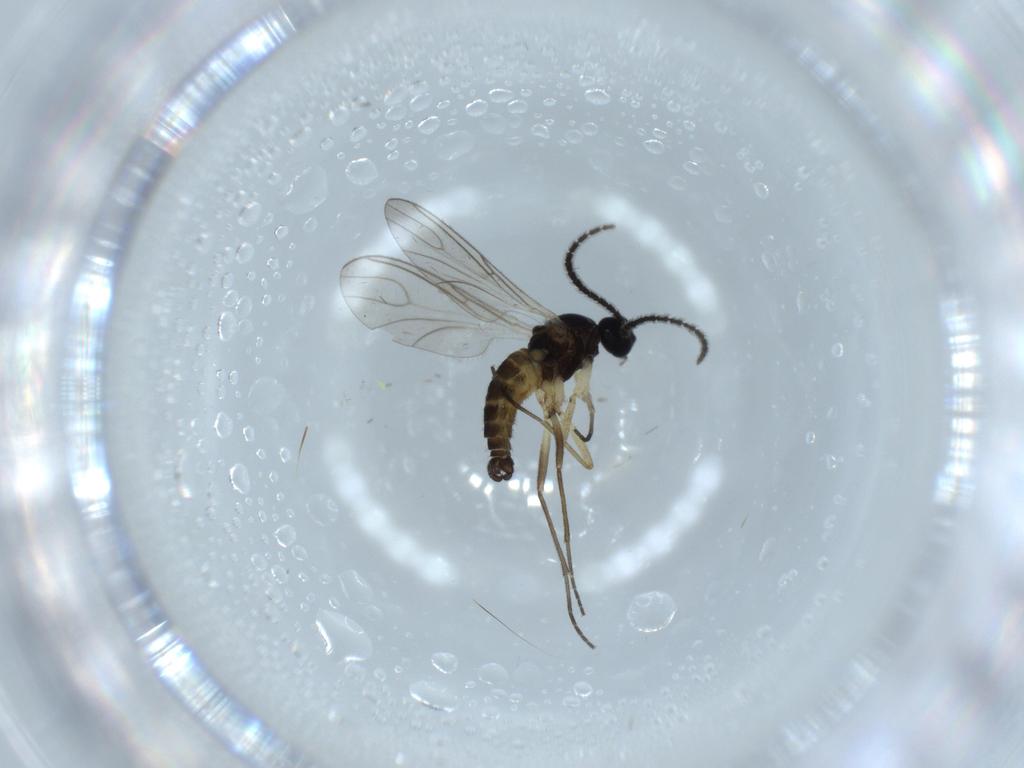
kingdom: Animalia
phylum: Arthropoda
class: Insecta
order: Diptera
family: Sciaridae
